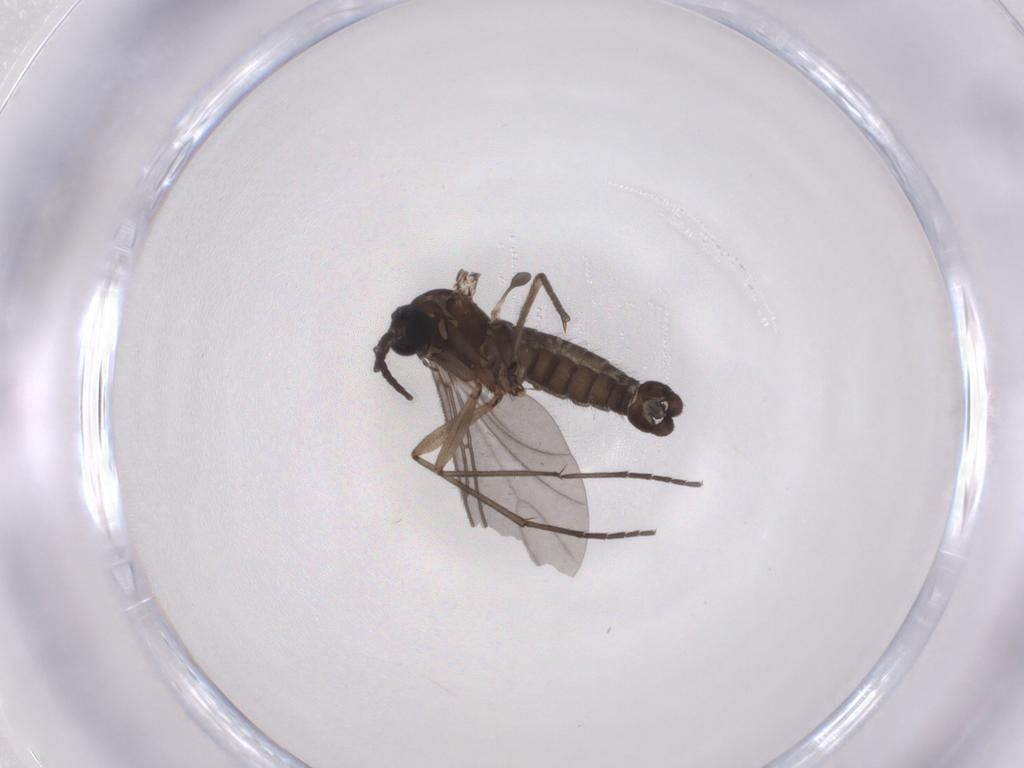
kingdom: Animalia
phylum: Arthropoda
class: Insecta
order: Diptera
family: Sciaridae
